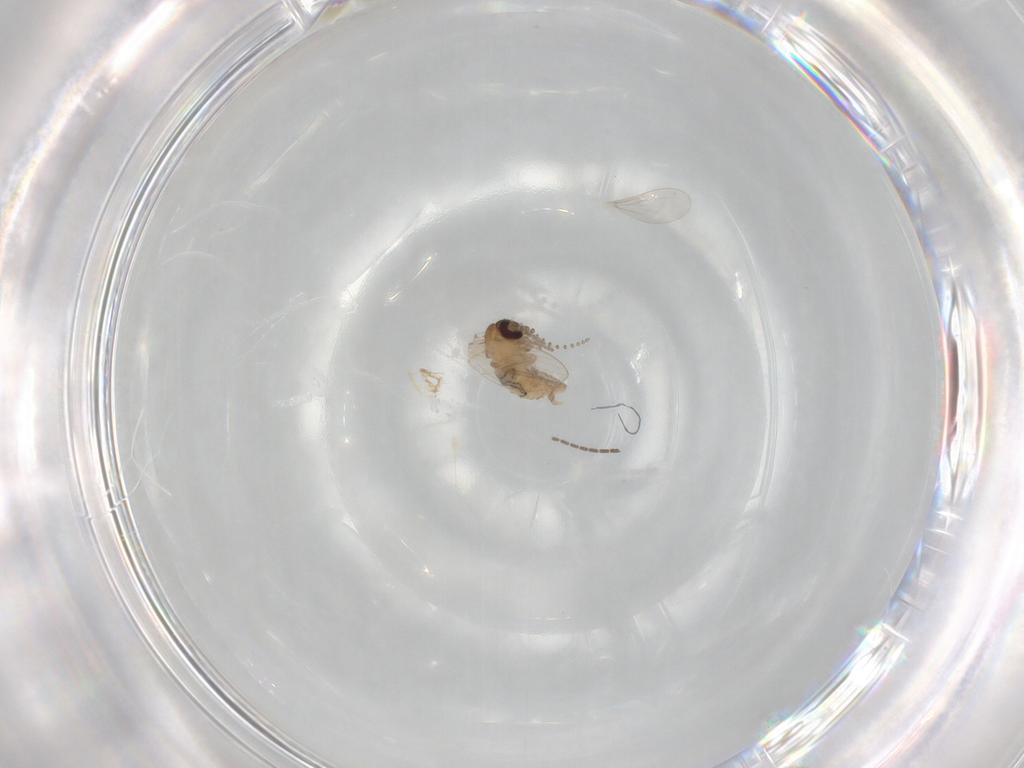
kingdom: Animalia
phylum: Arthropoda
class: Insecta
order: Diptera
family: Psychodidae
